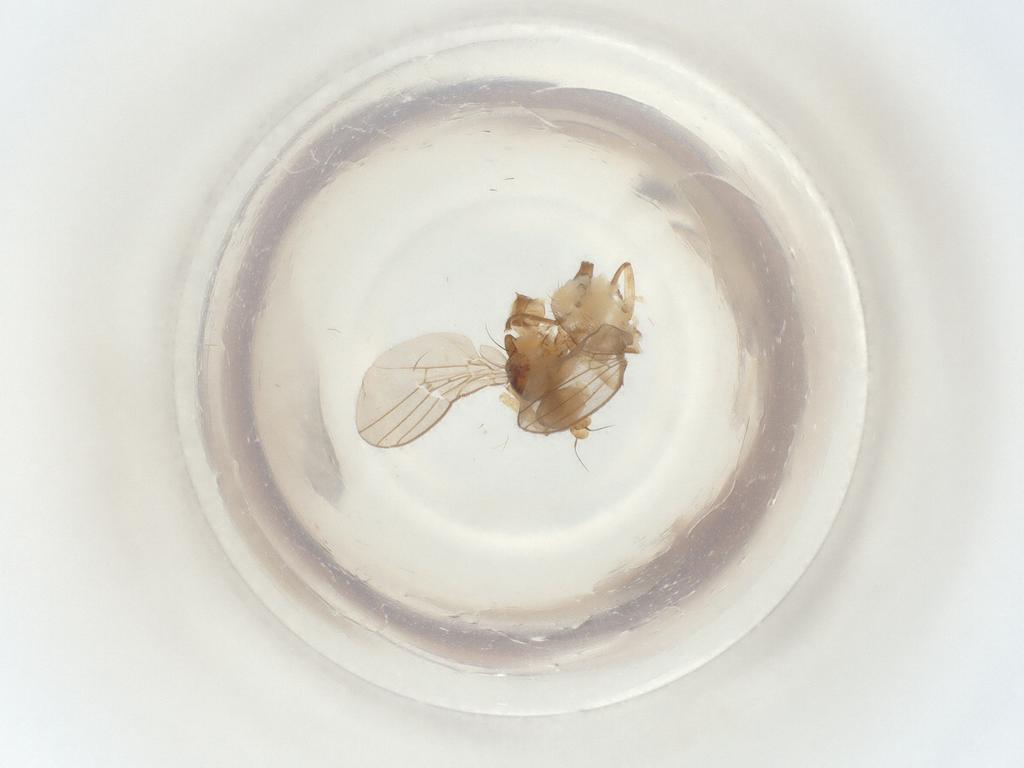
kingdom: Animalia
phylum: Arthropoda
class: Insecta
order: Diptera
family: Agromyzidae
